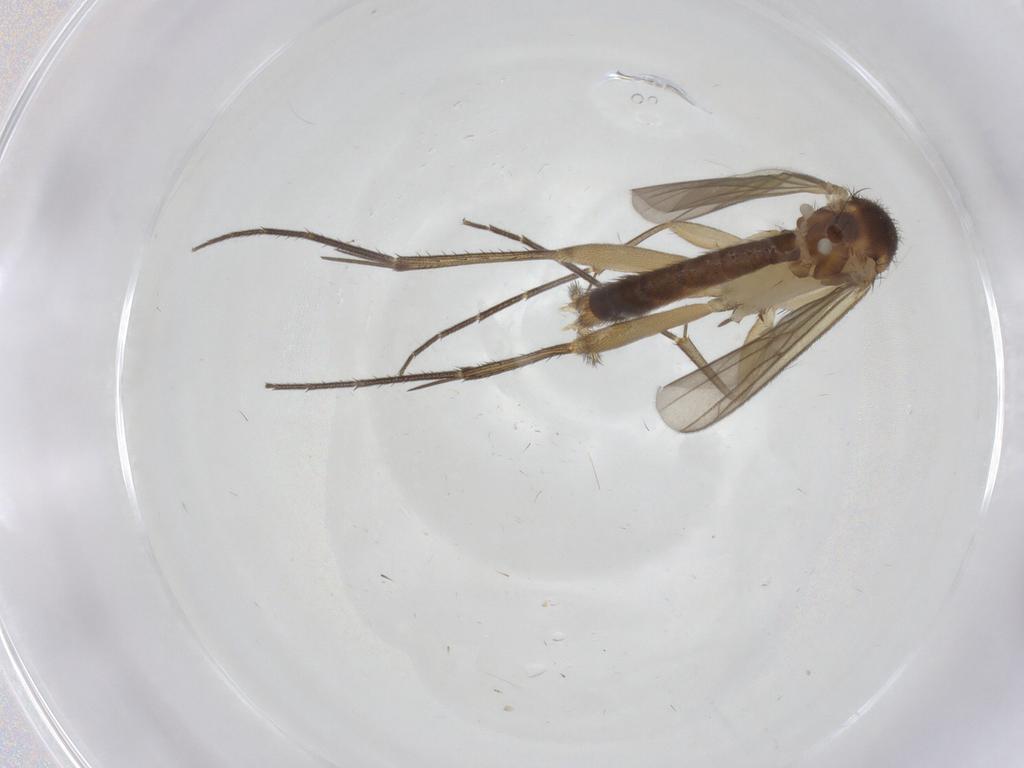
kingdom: Animalia
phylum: Arthropoda
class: Insecta
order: Diptera
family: Mycetophilidae
